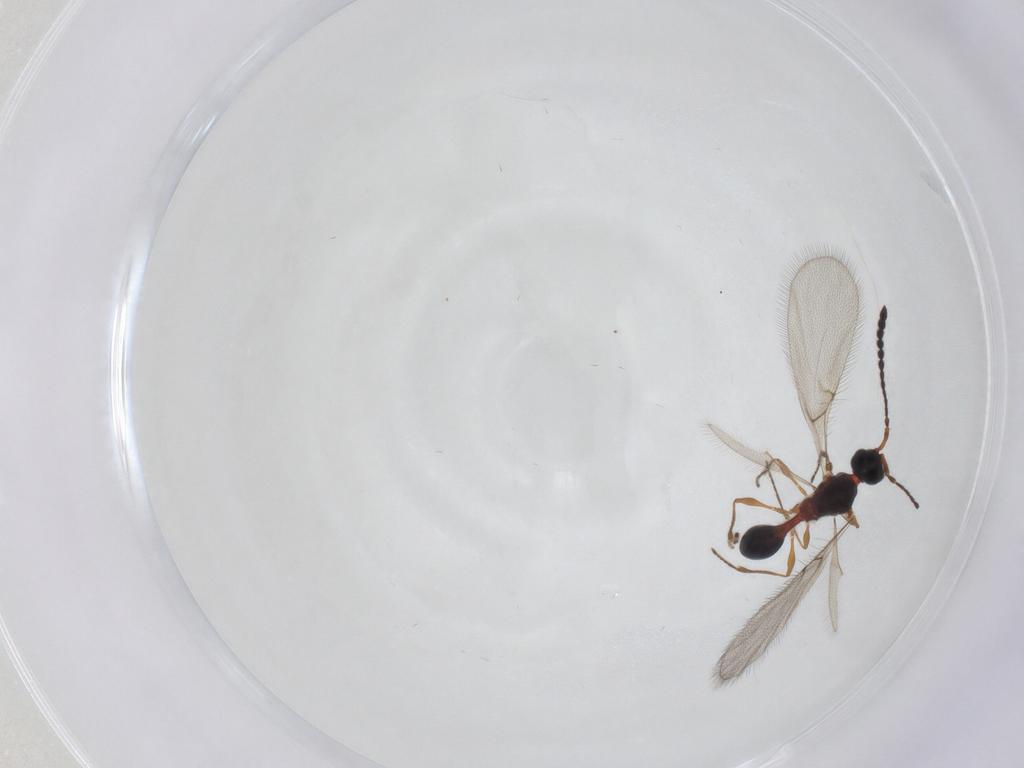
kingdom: Animalia
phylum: Arthropoda
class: Insecta
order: Hymenoptera
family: Diapriidae
